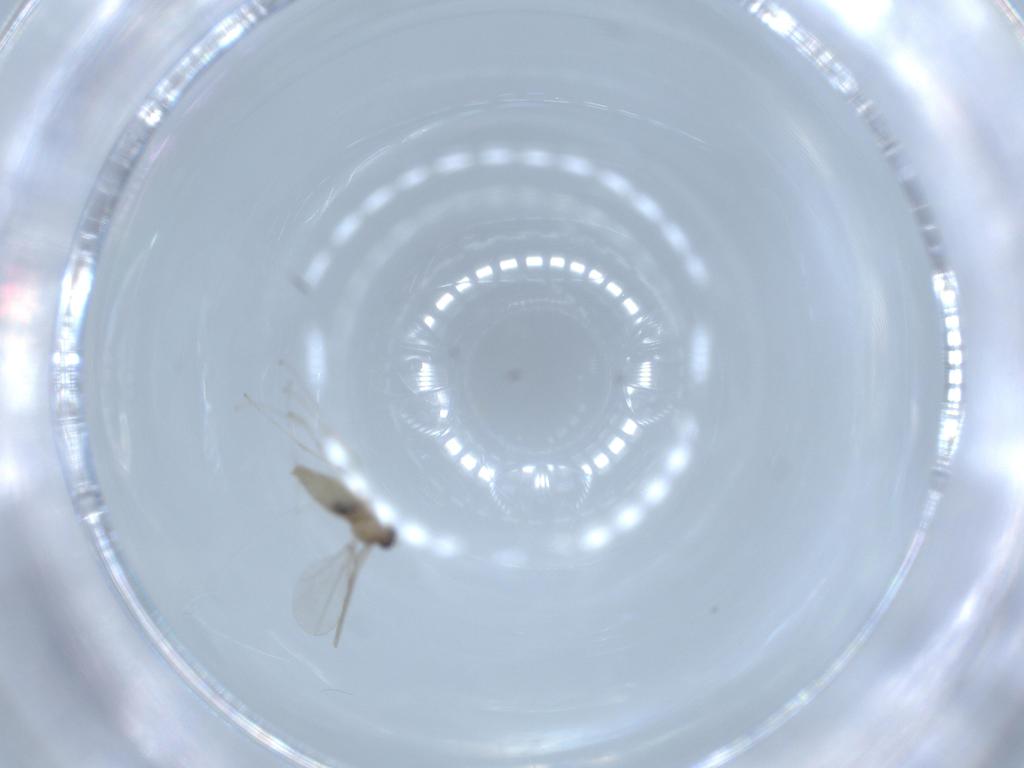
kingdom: Animalia
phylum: Arthropoda
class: Insecta
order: Diptera
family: Cecidomyiidae
